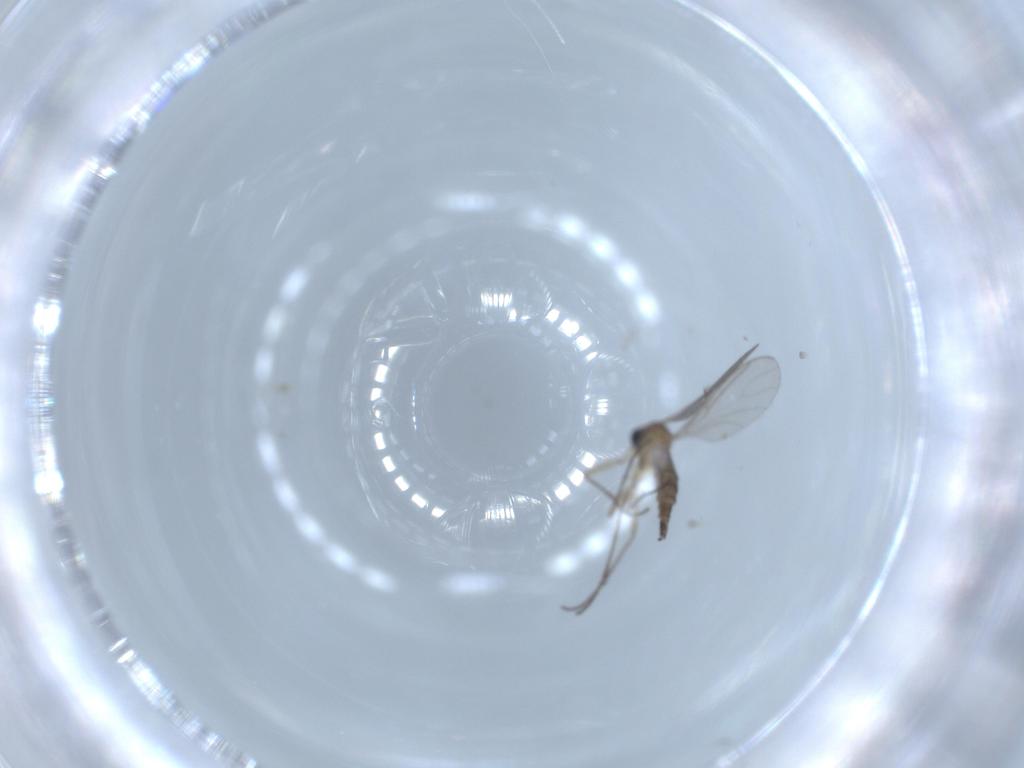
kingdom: Animalia
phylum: Arthropoda
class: Insecta
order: Diptera
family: Sciaridae
